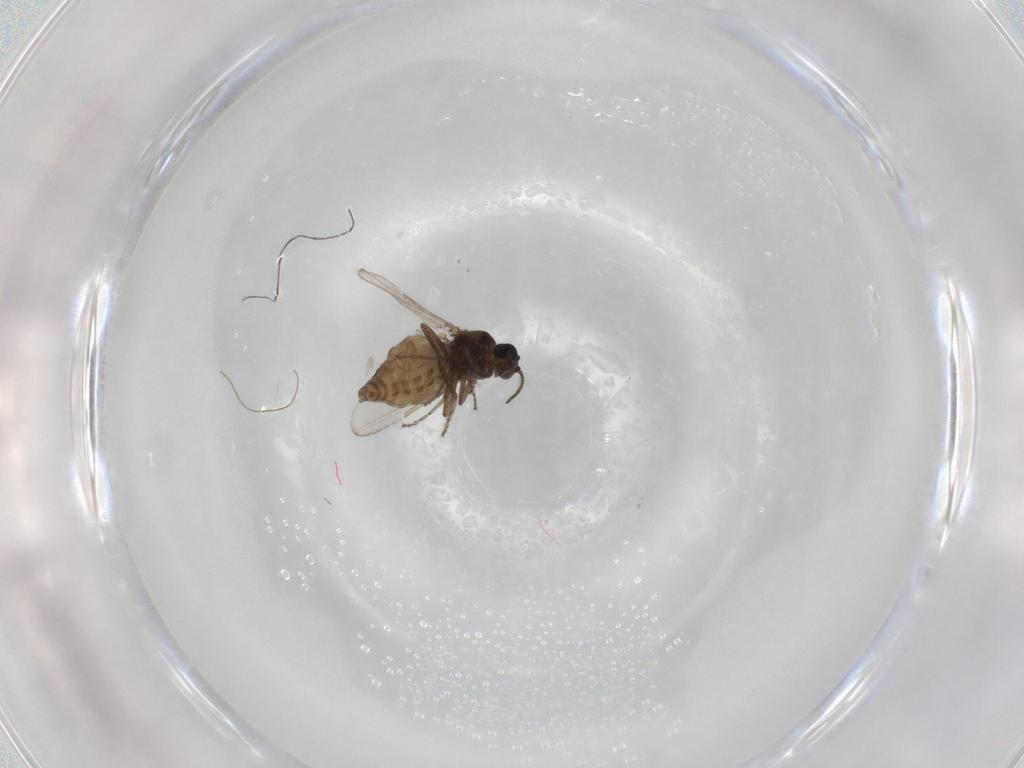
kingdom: Animalia
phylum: Arthropoda
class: Insecta
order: Diptera
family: Ceratopogonidae
